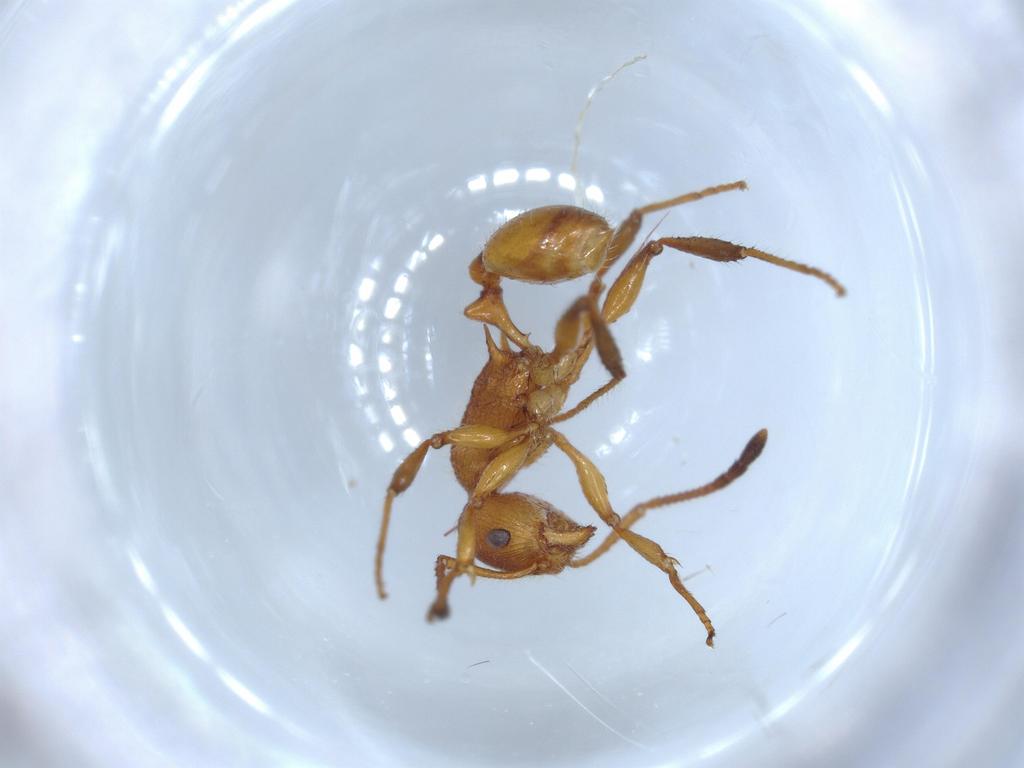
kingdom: Animalia
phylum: Arthropoda
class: Insecta
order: Hymenoptera
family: Formicidae
